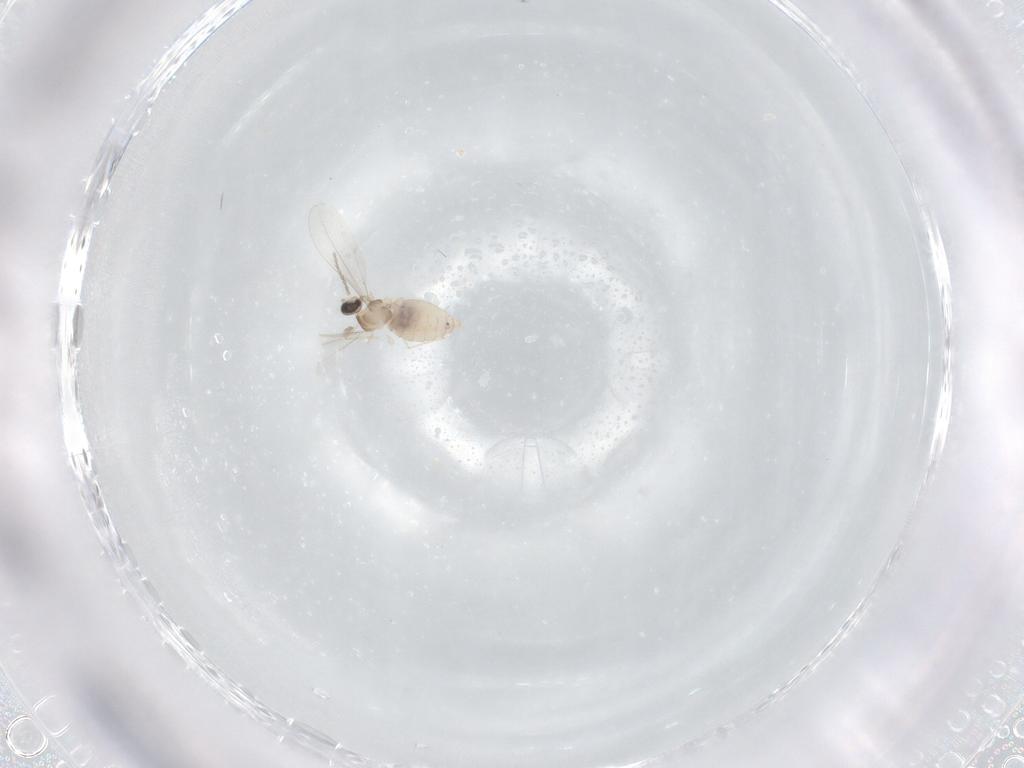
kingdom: Animalia
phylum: Arthropoda
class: Insecta
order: Diptera
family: Cecidomyiidae
